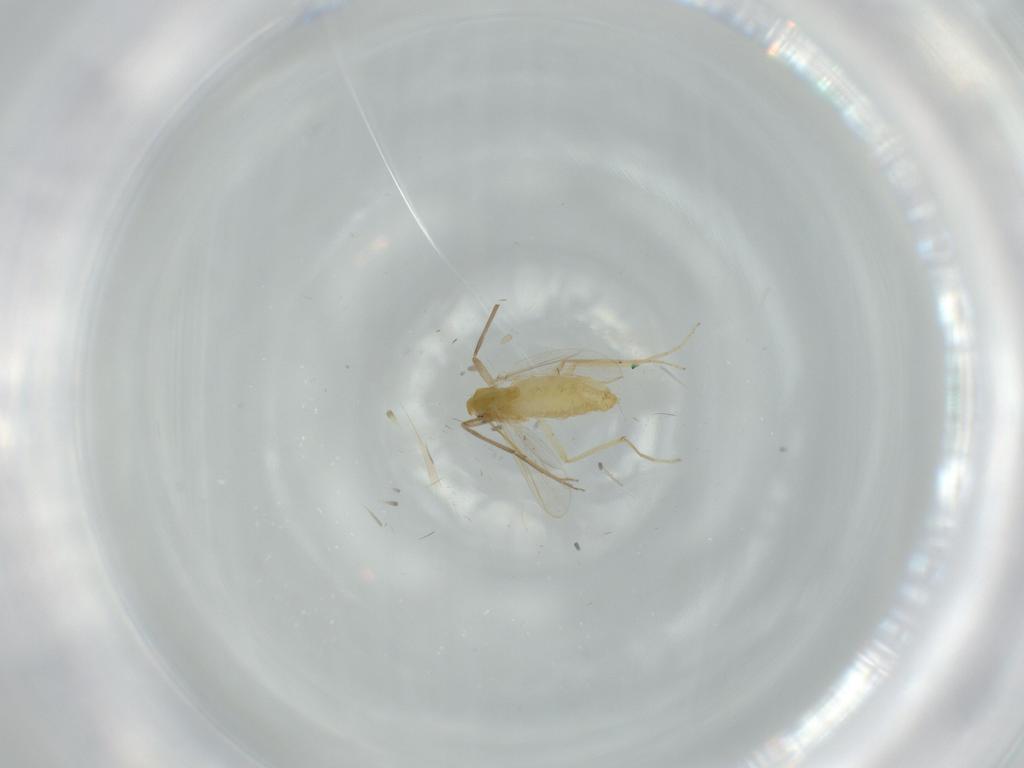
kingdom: Animalia
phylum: Arthropoda
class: Insecta
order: Diptera
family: Chironomidae
